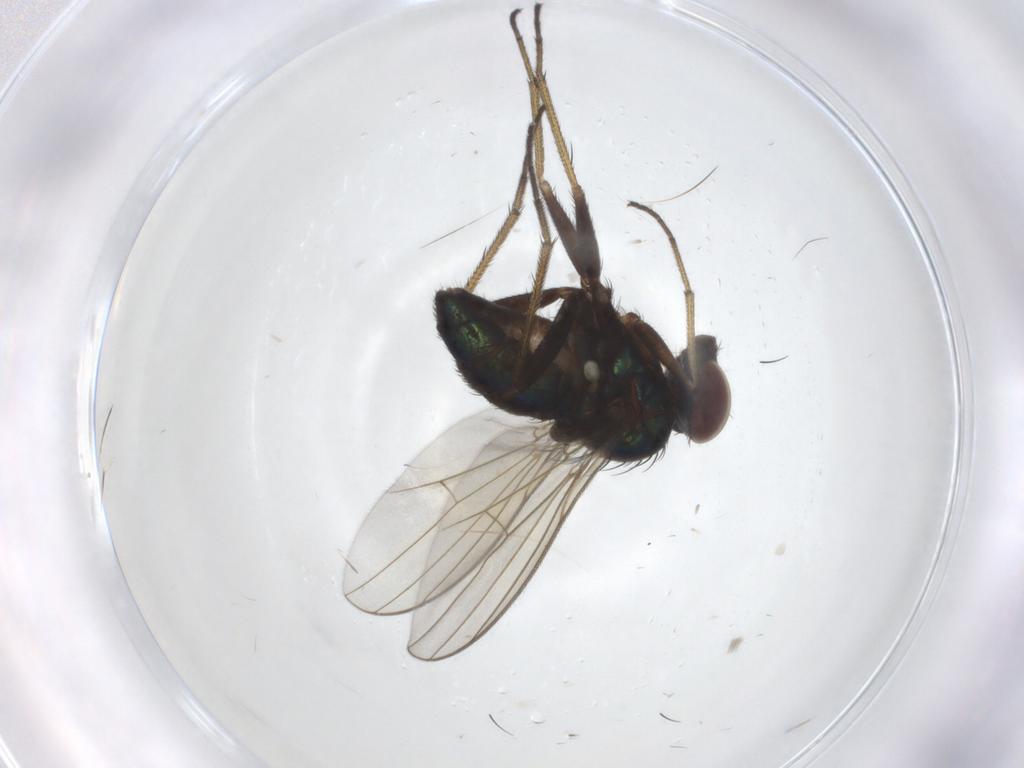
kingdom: Animalia
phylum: Arthropoda
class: Insecta
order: Diptera
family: Dolichopodidae
